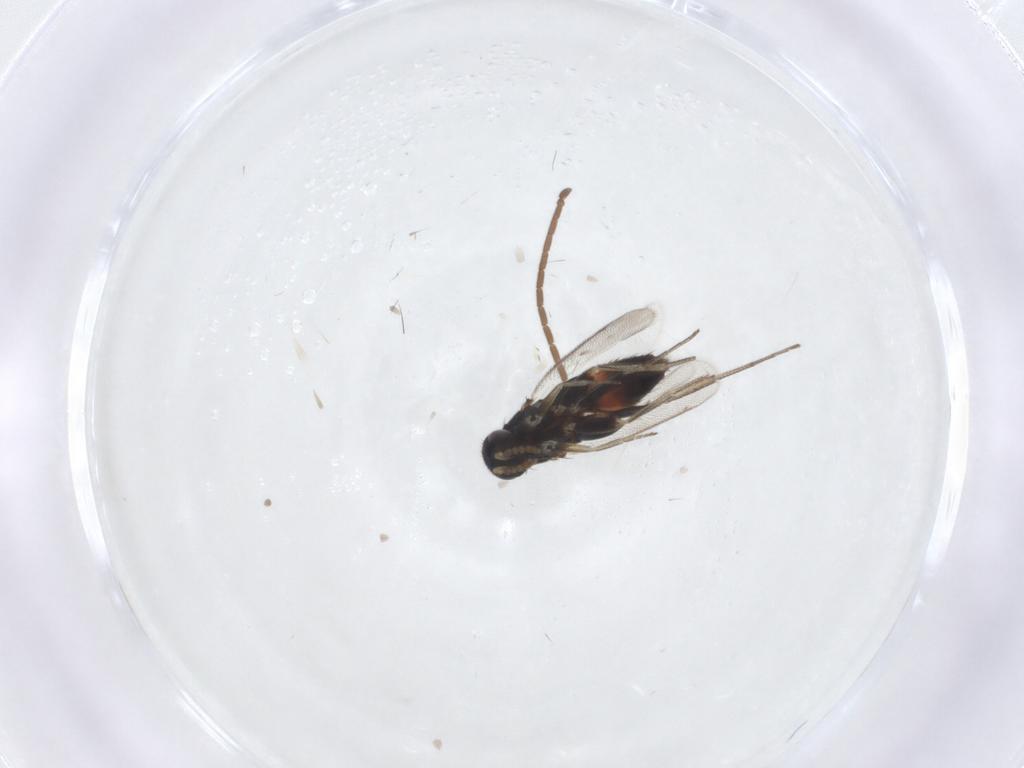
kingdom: Animalia
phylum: Arthropoda
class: Insecta
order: Hymenoptera
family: Formicidae
